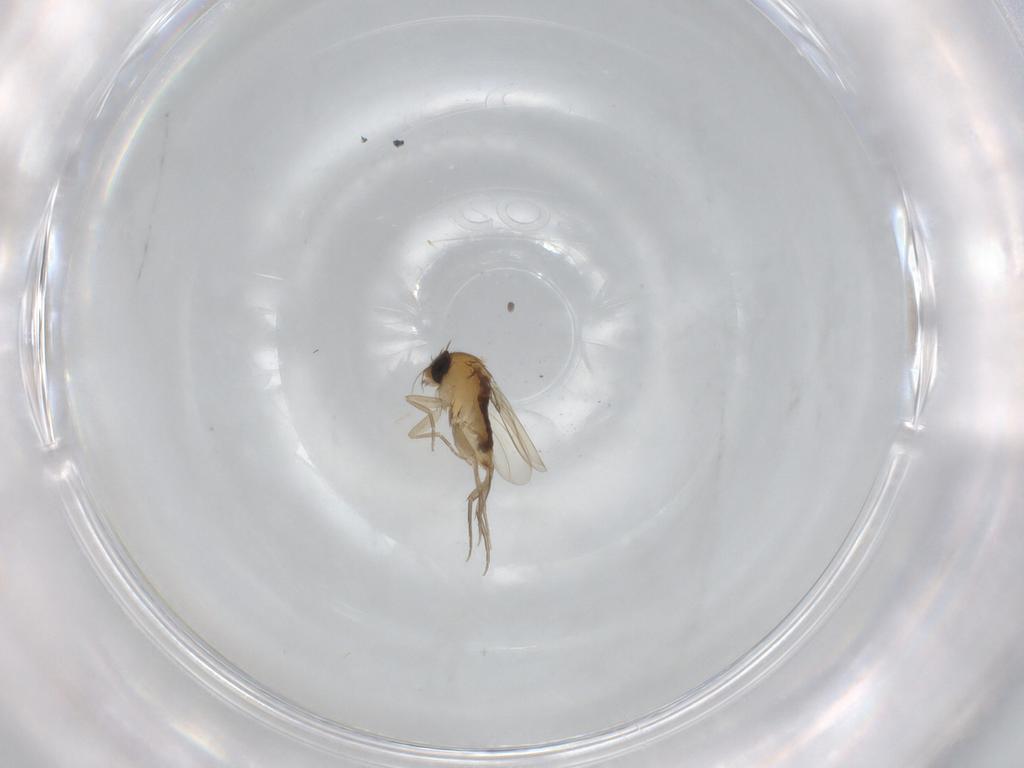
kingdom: Animalia
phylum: Arthropoda
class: Insecta
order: Diptera
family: Phoridae
